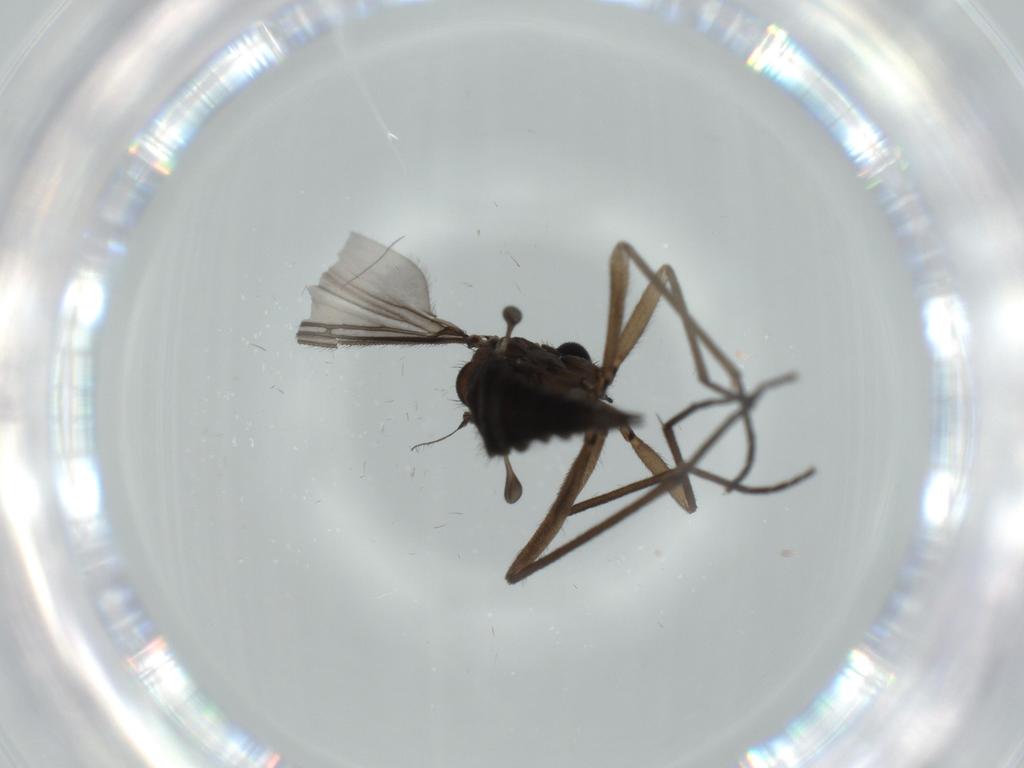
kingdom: Animalia
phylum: Arthropoda
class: Insecta
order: Diptera
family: Sciaridae
